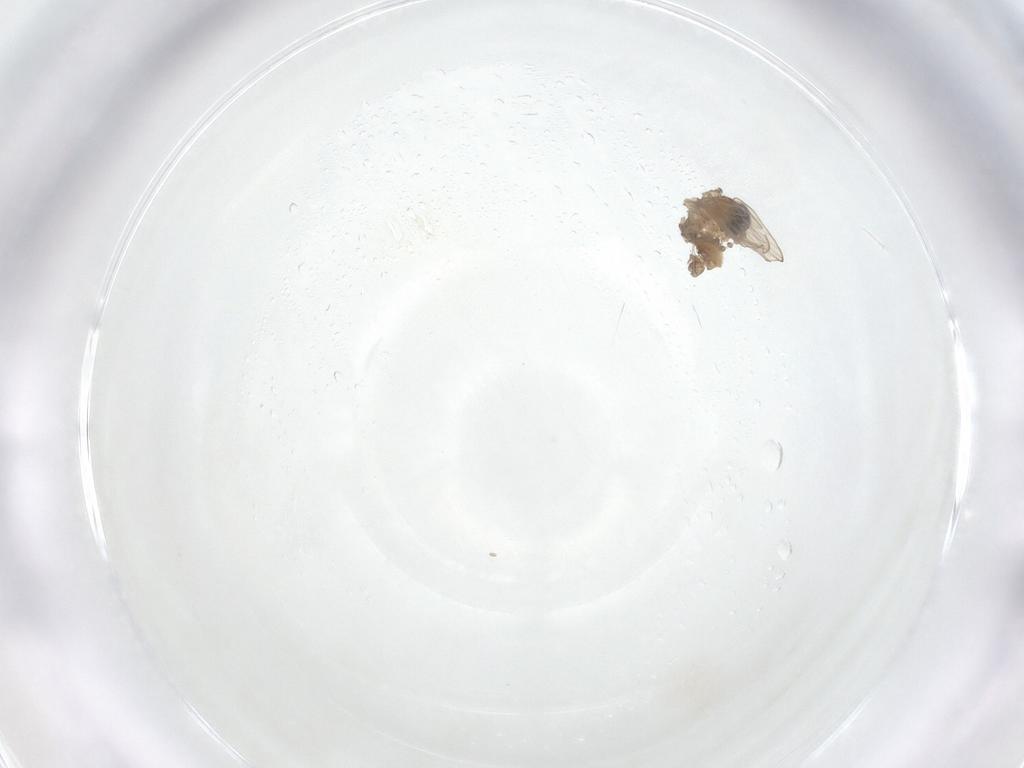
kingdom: Animalia
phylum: Arthropoda
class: Insecta
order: Diptera
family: Psychodidae
